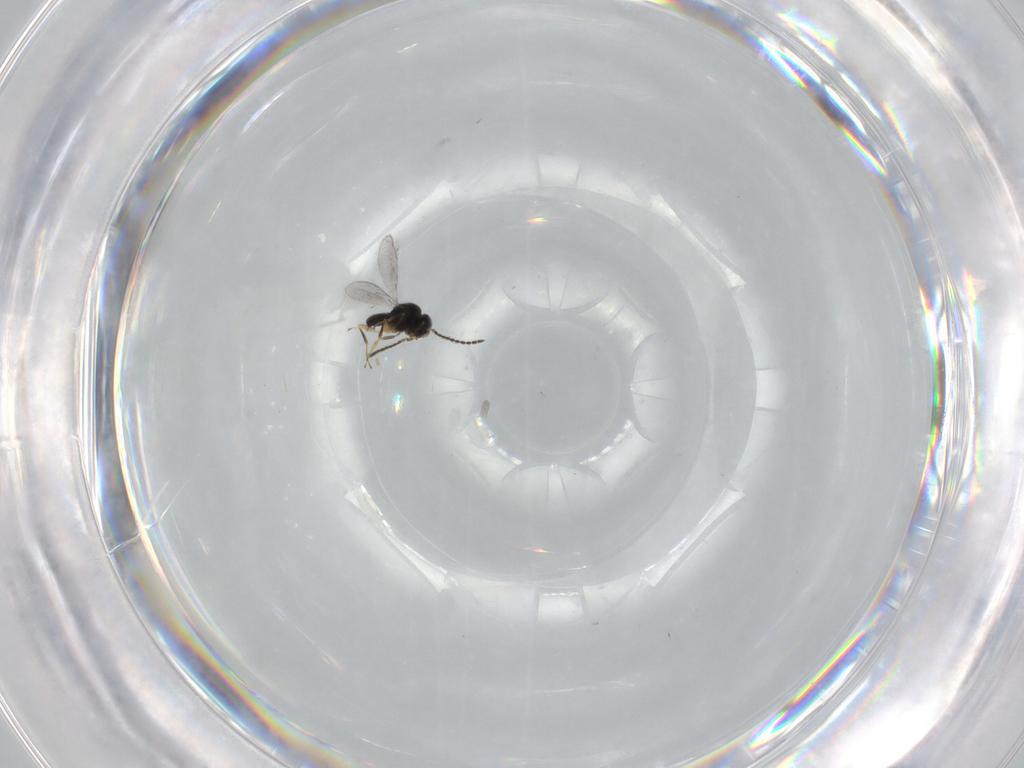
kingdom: Animalia
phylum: Arthropoda
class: Insecta
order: Hymenoptera
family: Scelionidae
